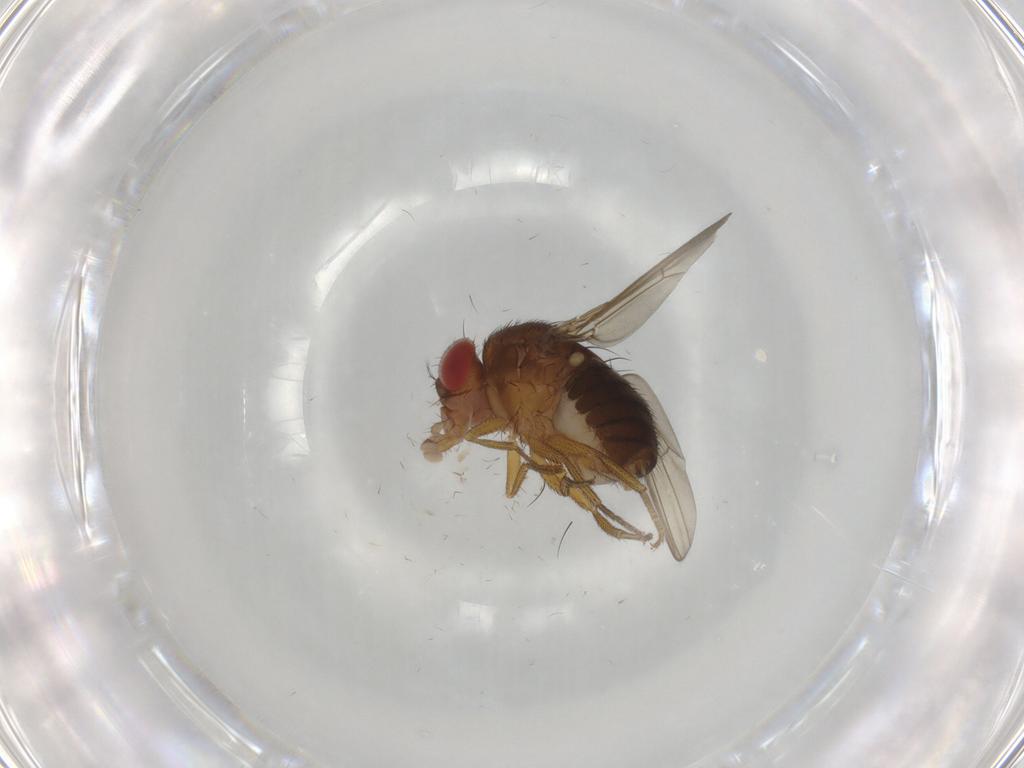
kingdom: Animalia
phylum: Arthropoda
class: Insecta
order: Diptera
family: Drosophilidae
